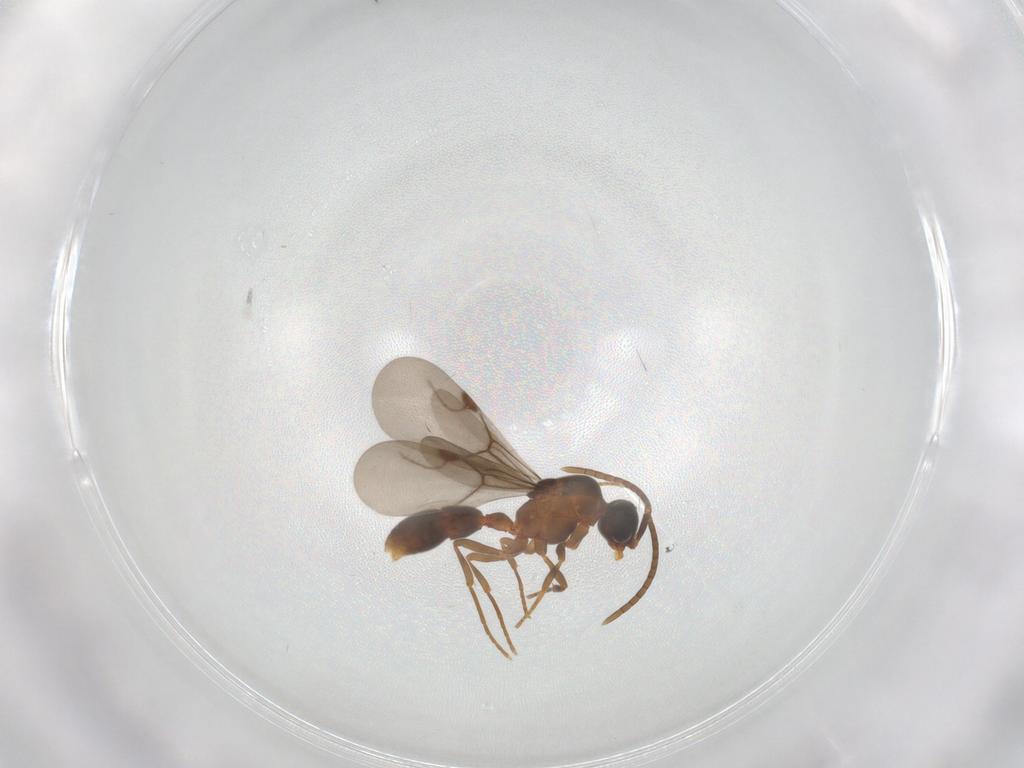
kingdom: Animalia
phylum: Arthropoda
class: Insecta
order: Hymenoptera
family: Formicidae
